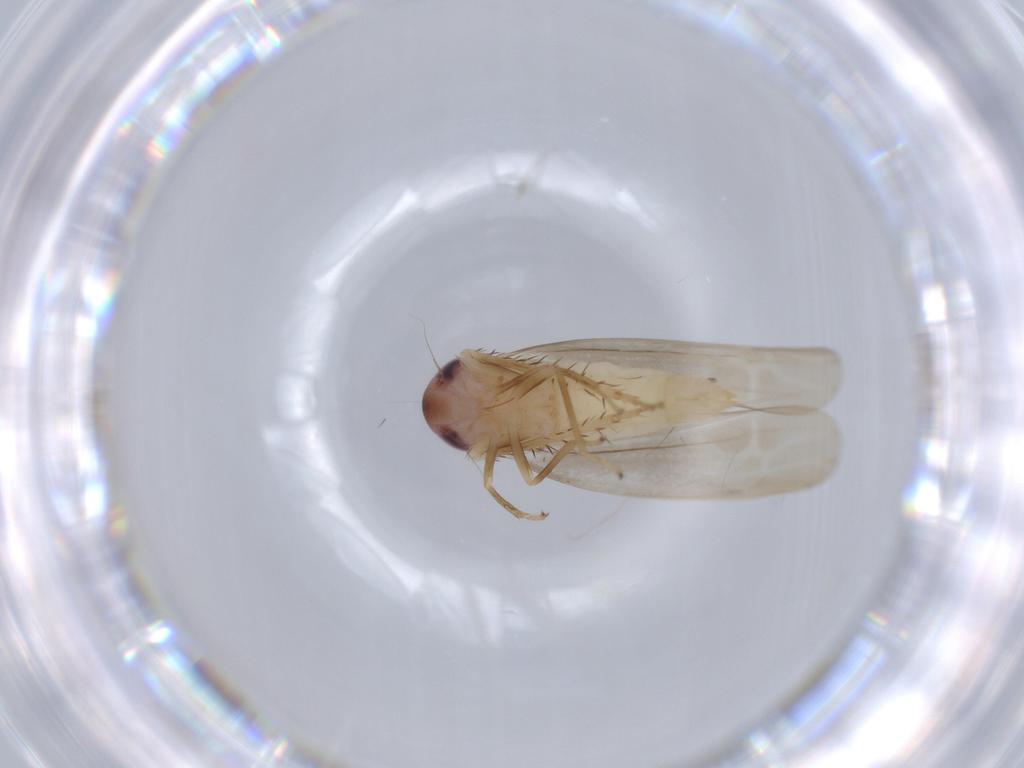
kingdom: Animalia
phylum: Arthropoda
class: Insecta
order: Hemiptera
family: Cicadellidae
